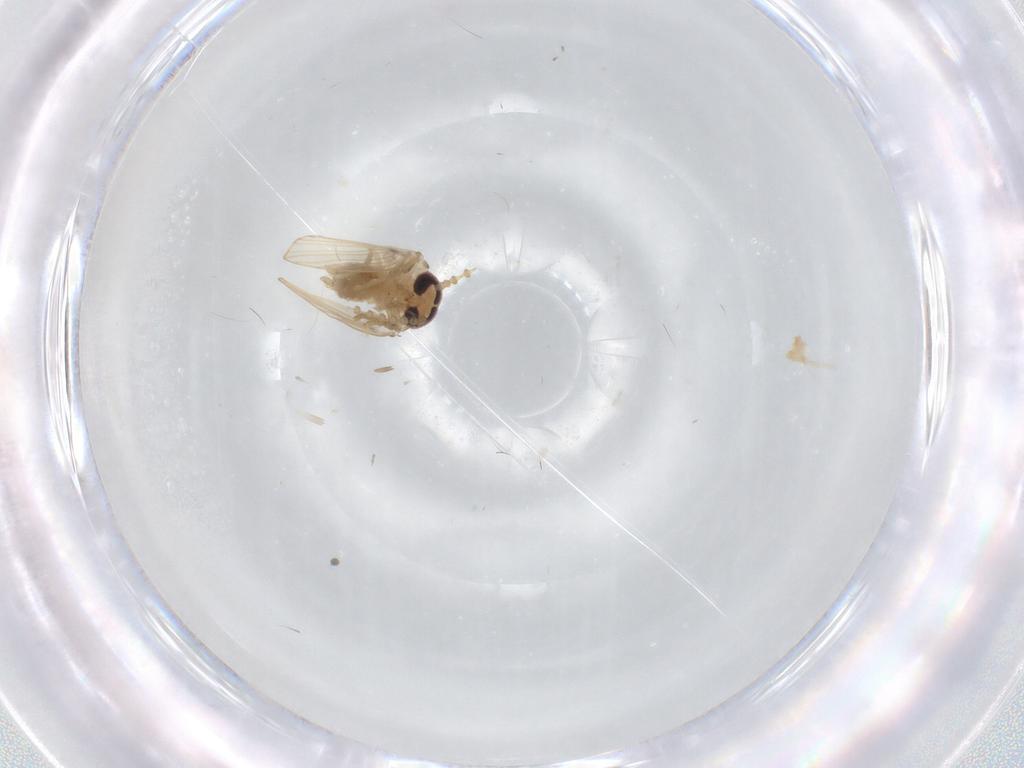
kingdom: Animalia
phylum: Arthropoda
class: Insecta
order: Diptera
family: Psychodidae
